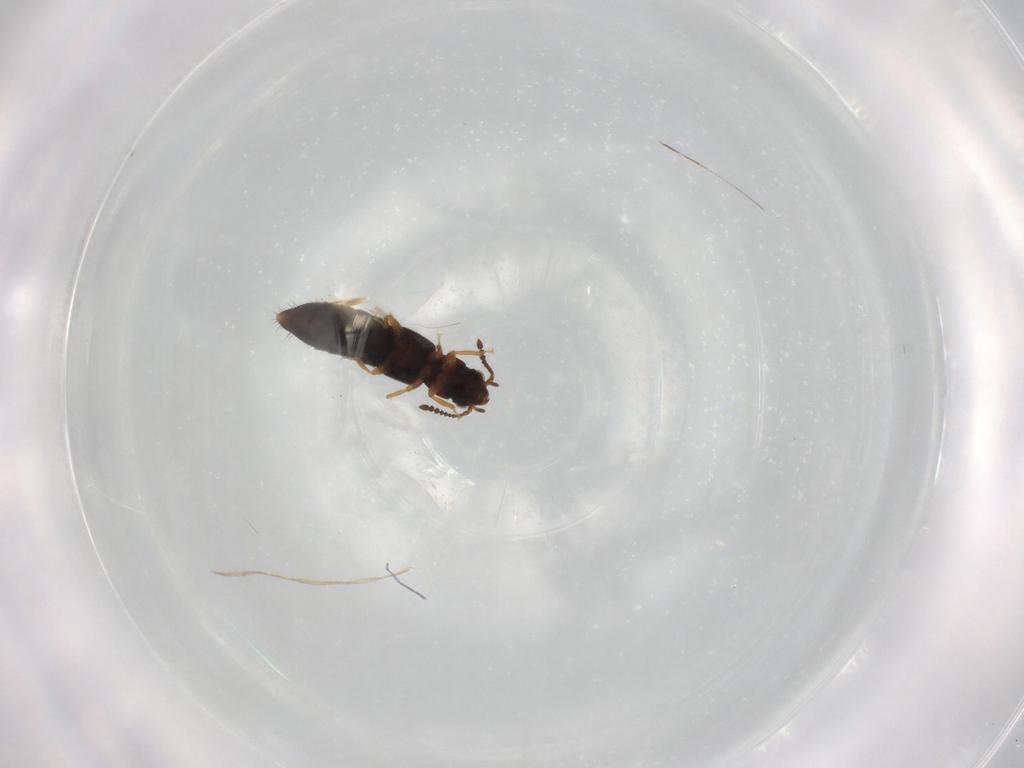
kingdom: Animalia
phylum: Arthropoda
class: Insecta
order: Coleoptera
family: Staphylinidae
